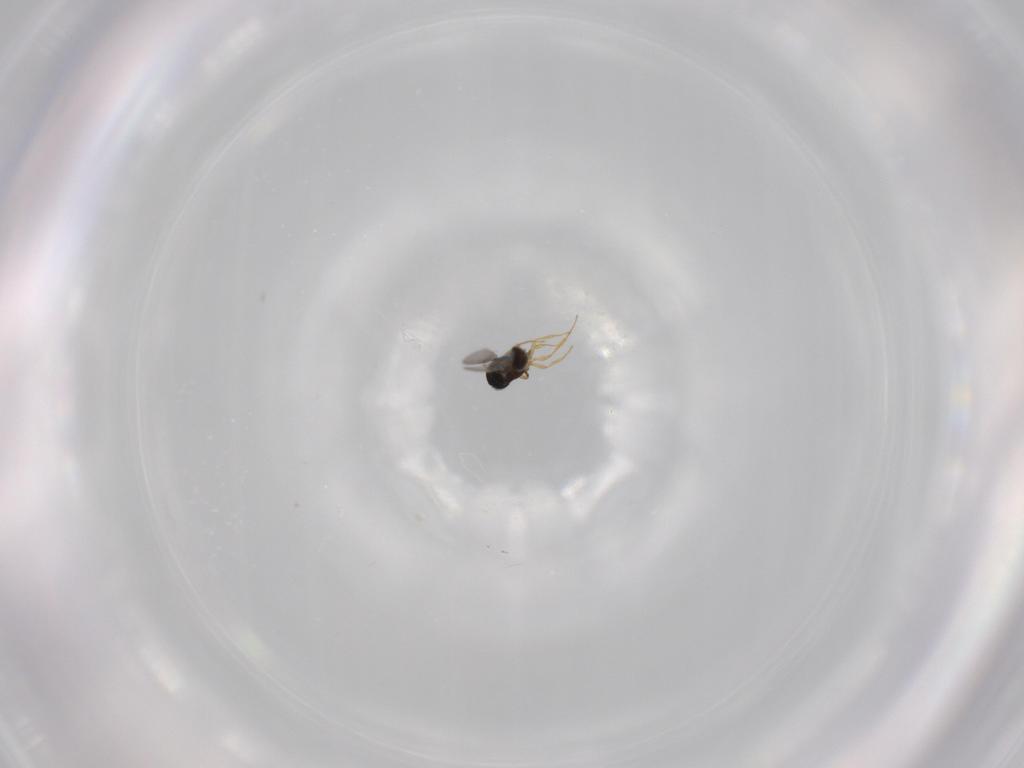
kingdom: Animalia
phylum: Arthropoda
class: Insecta
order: Hymenoptera
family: Scelionidae
